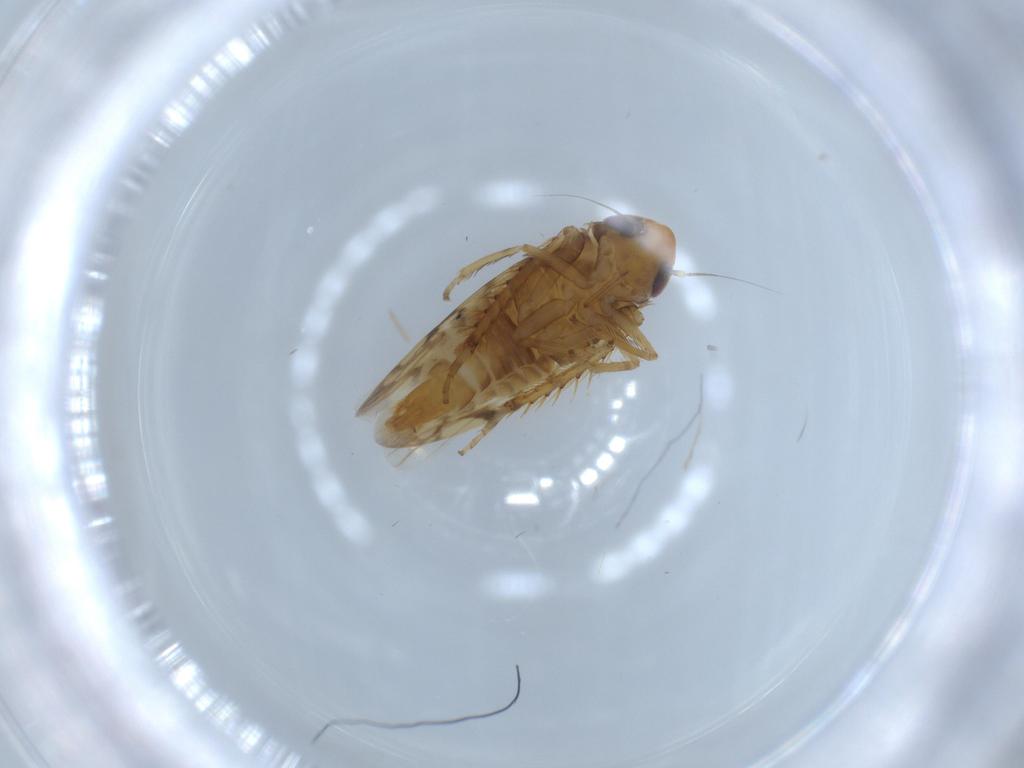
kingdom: Animalia
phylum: Arthropoda
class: Insecta
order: Hemiptera
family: Cicadellidae
